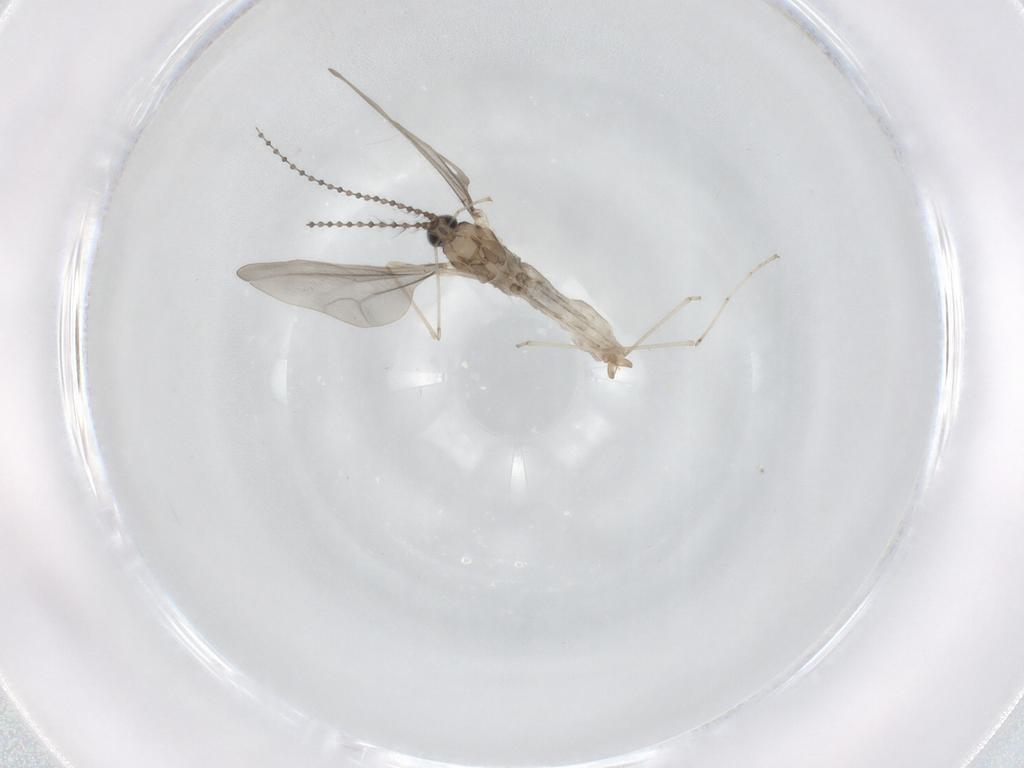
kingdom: Animalia
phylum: Arthropoda
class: Insecta
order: Diptera
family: Cecidomyiidae
